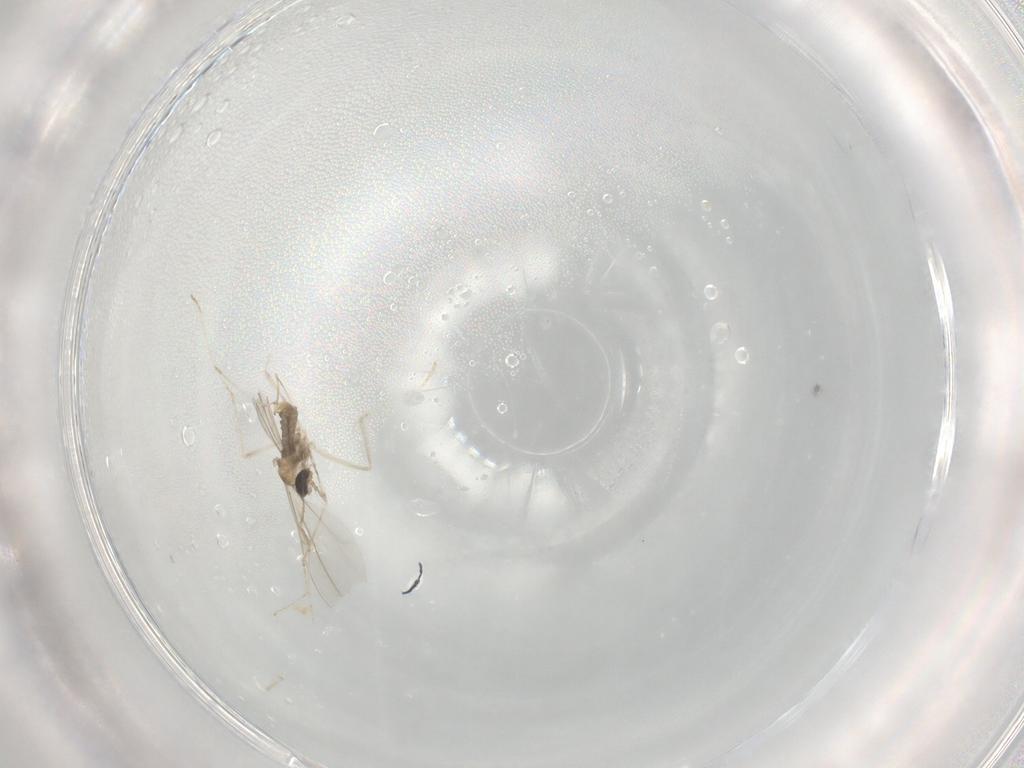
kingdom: Animalia
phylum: Arthropoda
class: Insecta
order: Diptera
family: Cecidomyiidae
